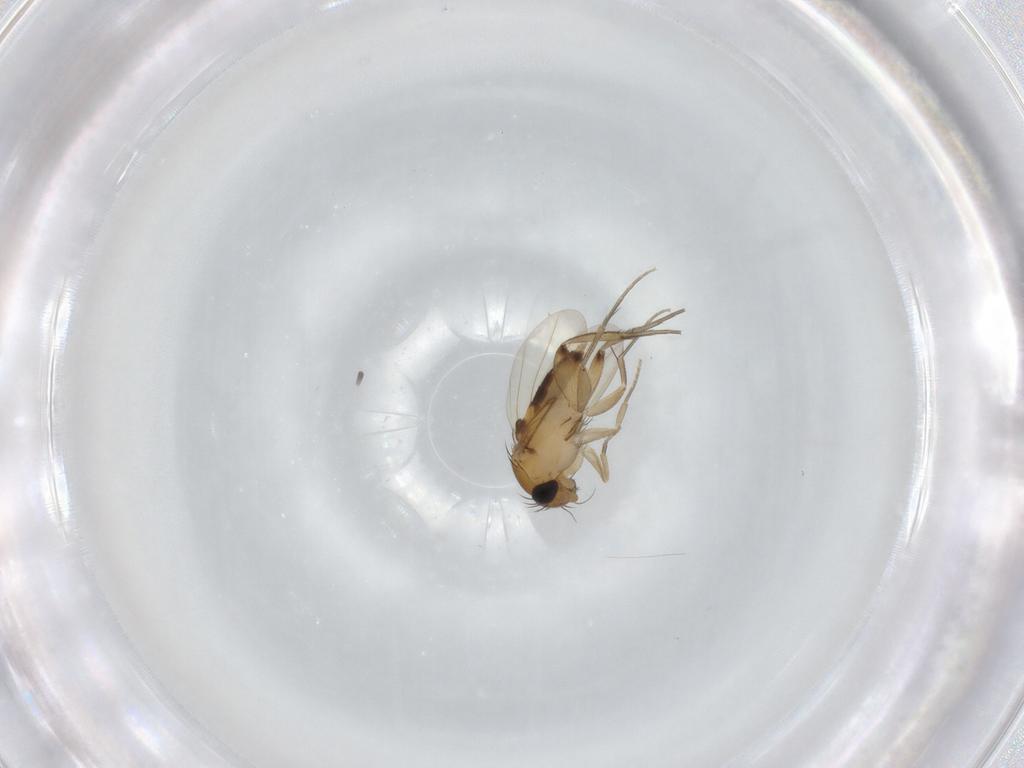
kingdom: Animalia
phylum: Arthropoda
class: Insecta
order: Diptera
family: Phoridae
